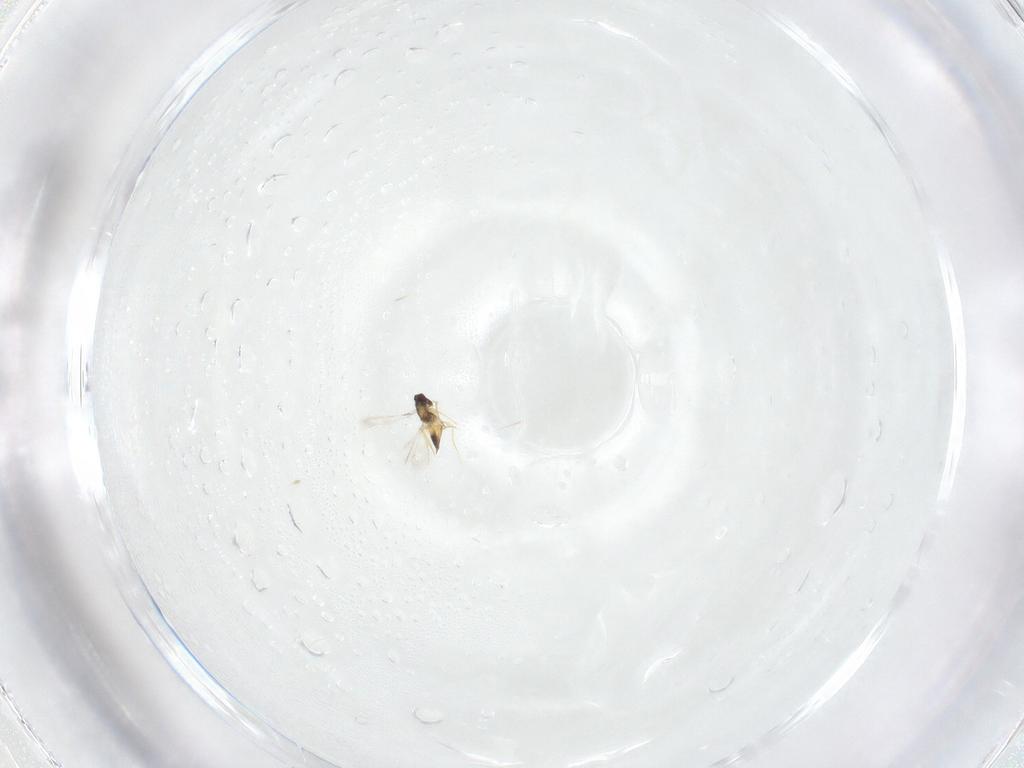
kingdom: Animalia
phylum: Arthropoda
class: Insecta
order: Hymenoptera
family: Mymaridae
